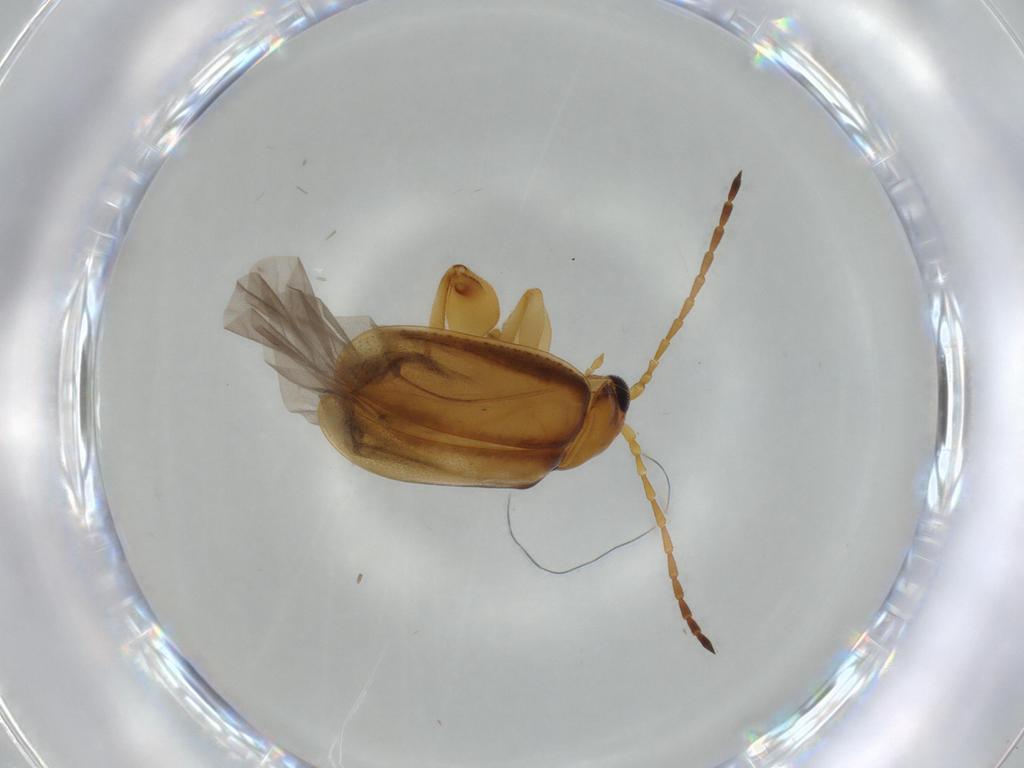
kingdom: Animalia
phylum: Arthropoda
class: Insecta
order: Coleoptera
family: Chrysomelidae
